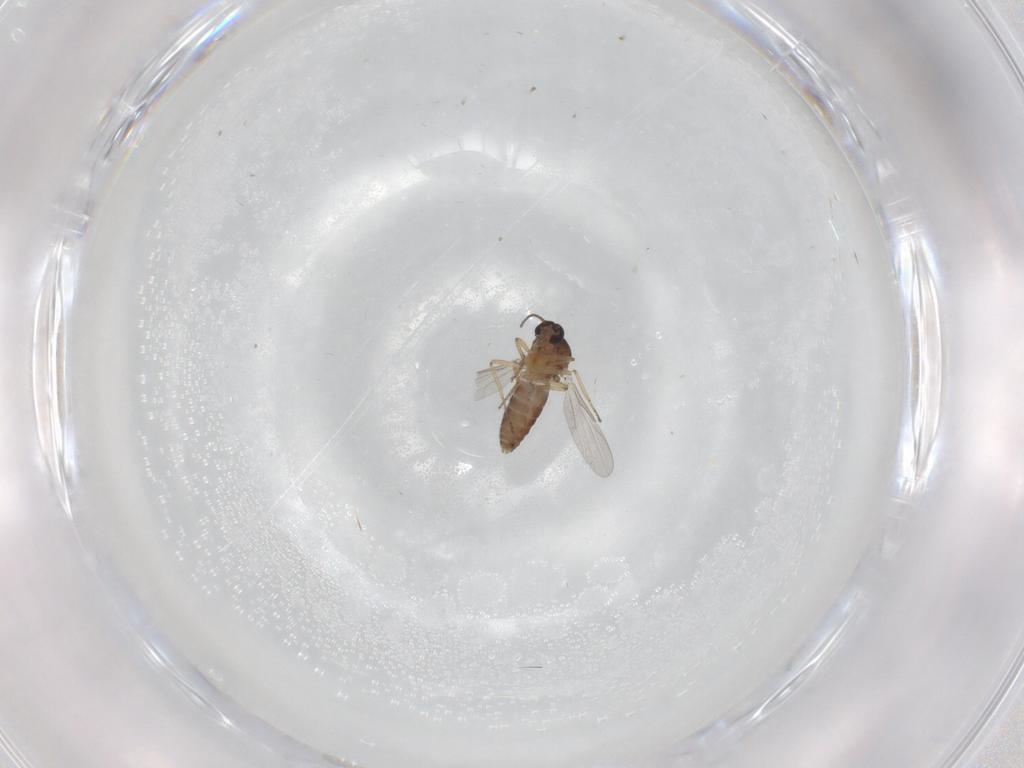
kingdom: Animalia
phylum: Arthropoda
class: Insecta
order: Diptera
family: Ceratopogonidae
